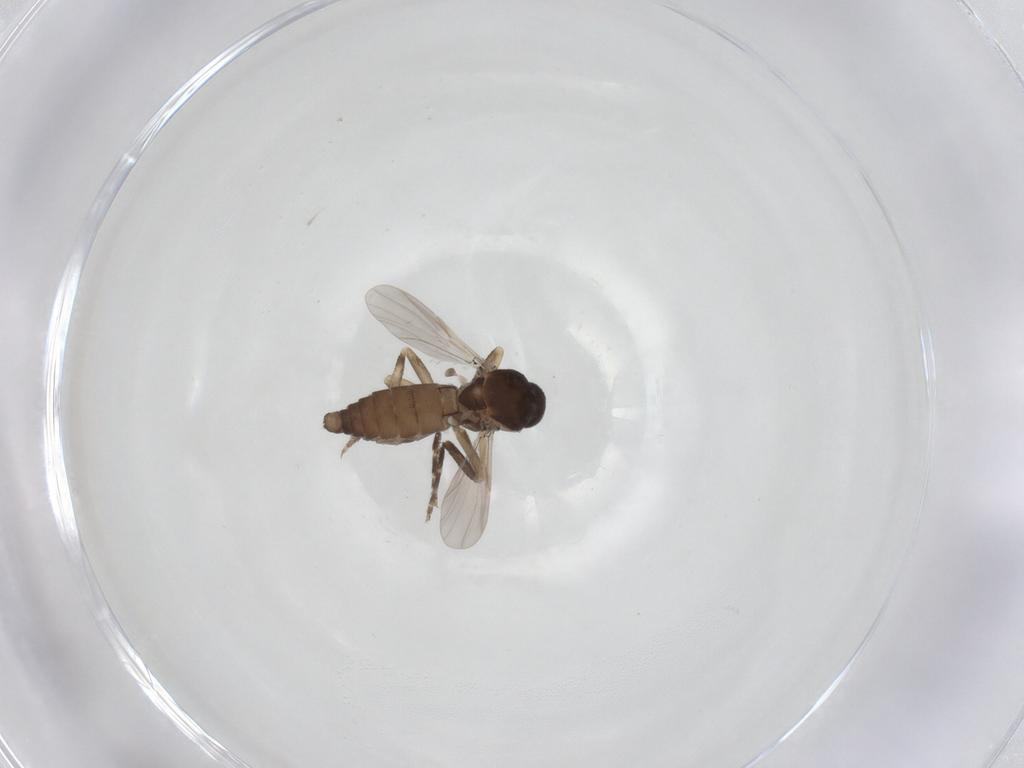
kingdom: Animalia
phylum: Arthropoda
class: Insecta
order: Diptera
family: Ceratopogonidae
